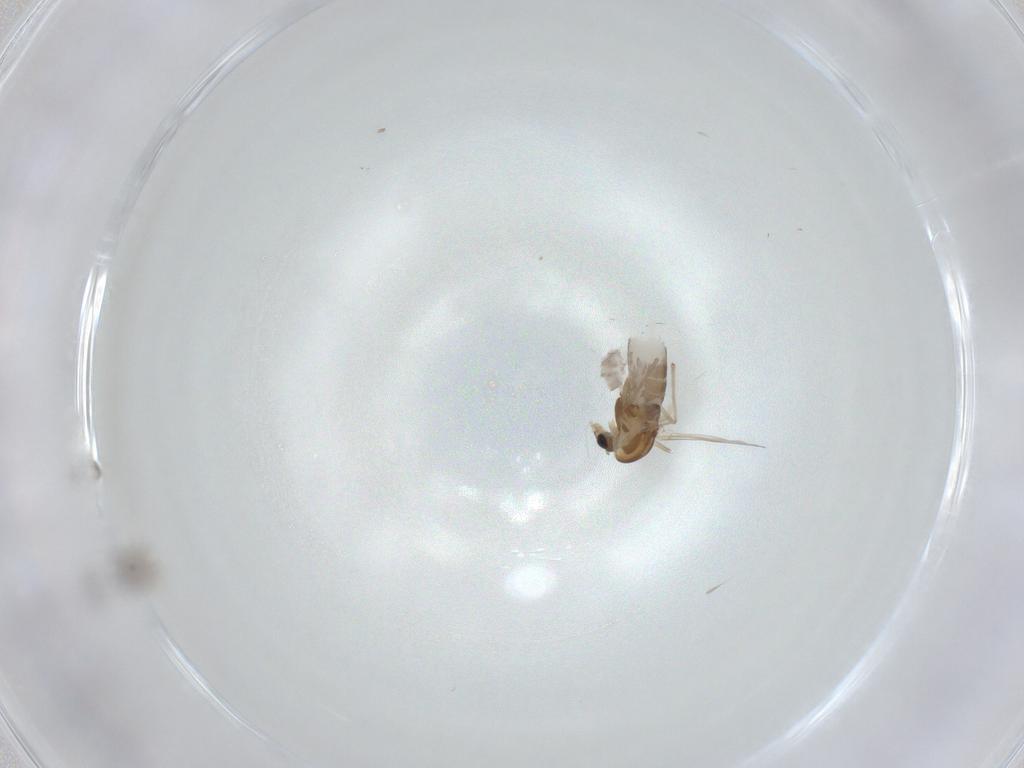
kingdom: Animalia
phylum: Arthropoda
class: Insecta
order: Diptera
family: Chironomidae
